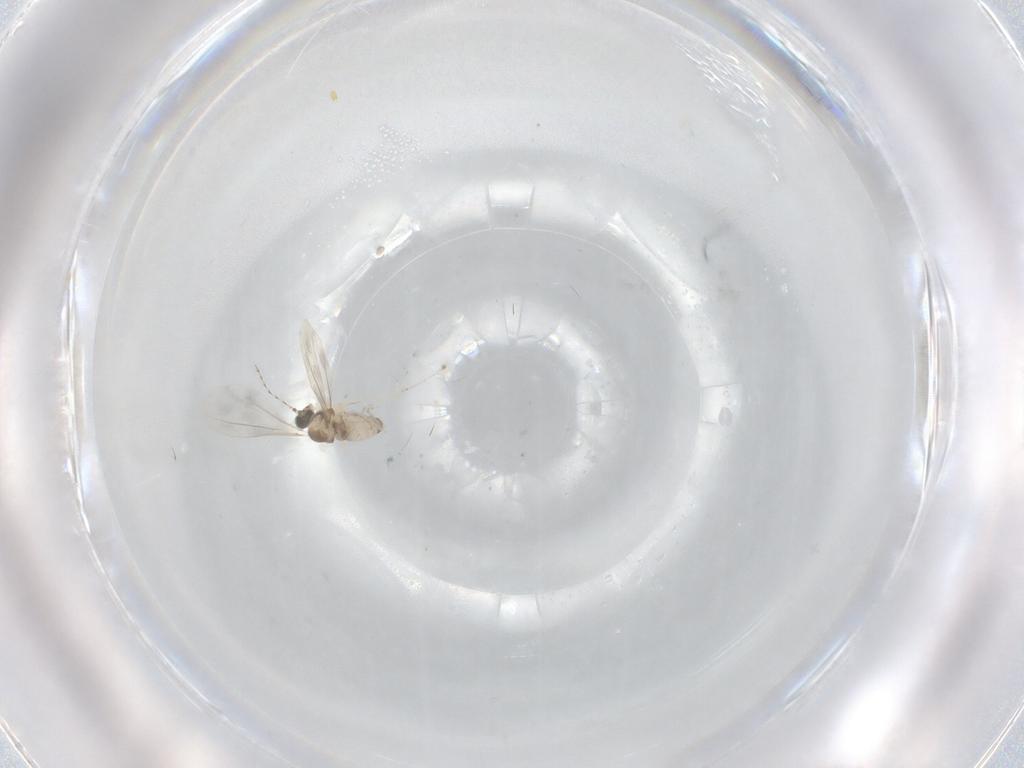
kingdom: Animalia
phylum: Arthropoda
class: Insecta
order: Diptera
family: Cecidomyiidae
